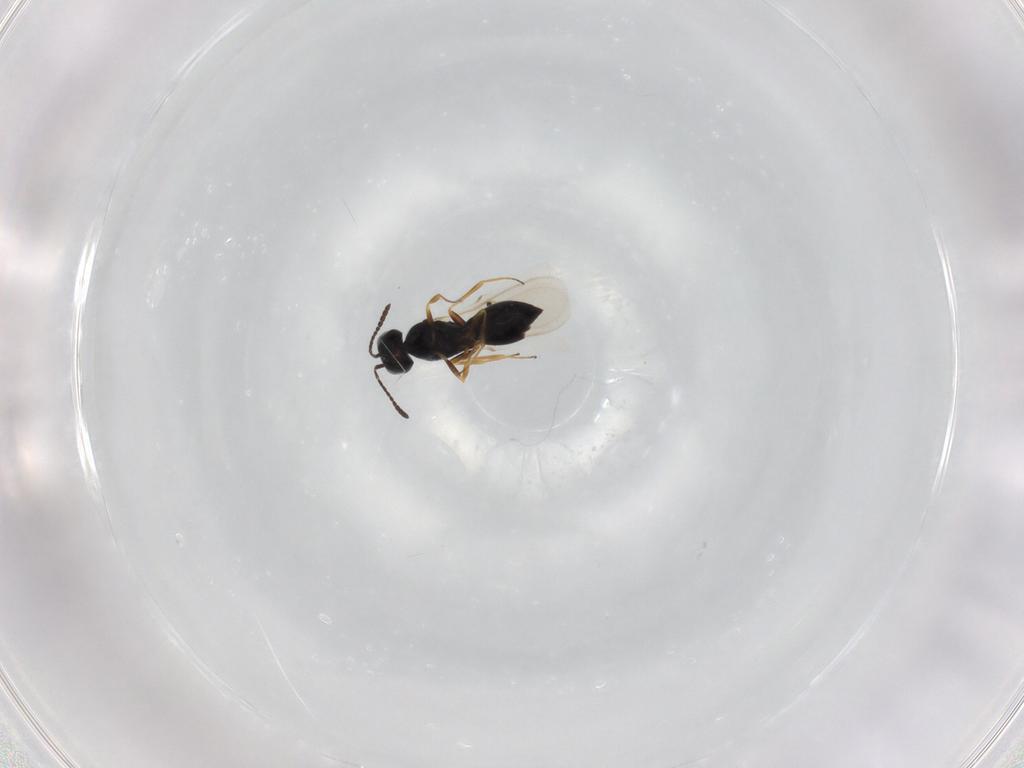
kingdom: Animalia
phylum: Arthropoda
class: Insecta
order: Hymenoptera
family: Scelionidae
